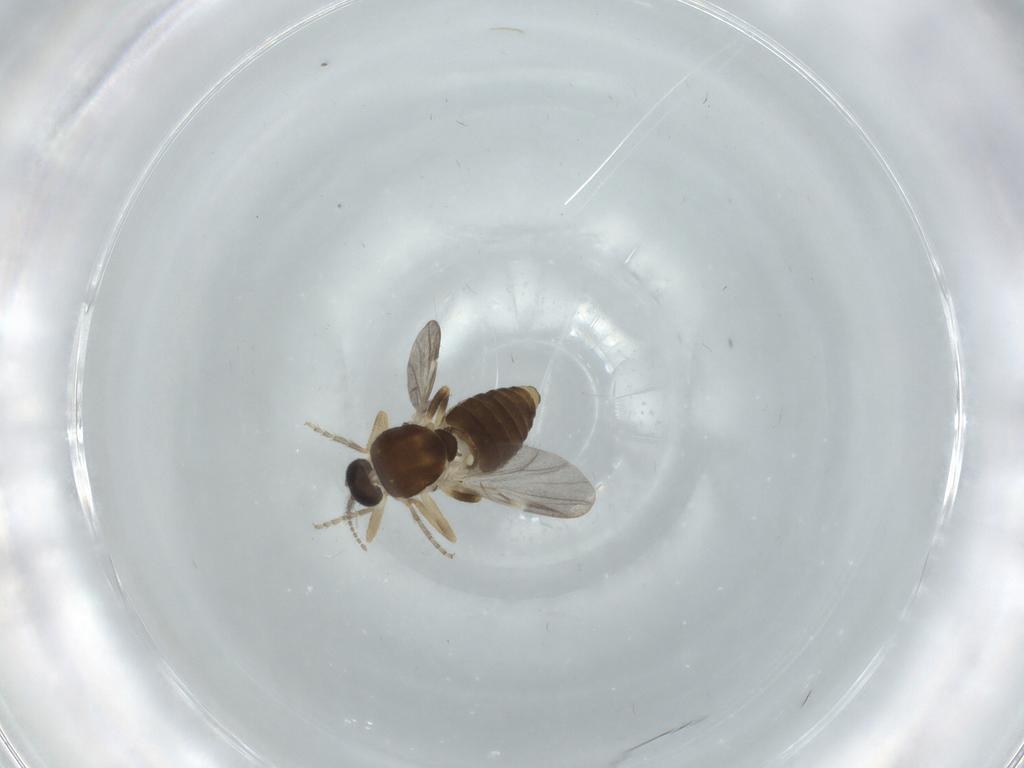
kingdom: Animalia
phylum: Arthropoda
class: Insecta
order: Diptera
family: Ceratopogonidae
